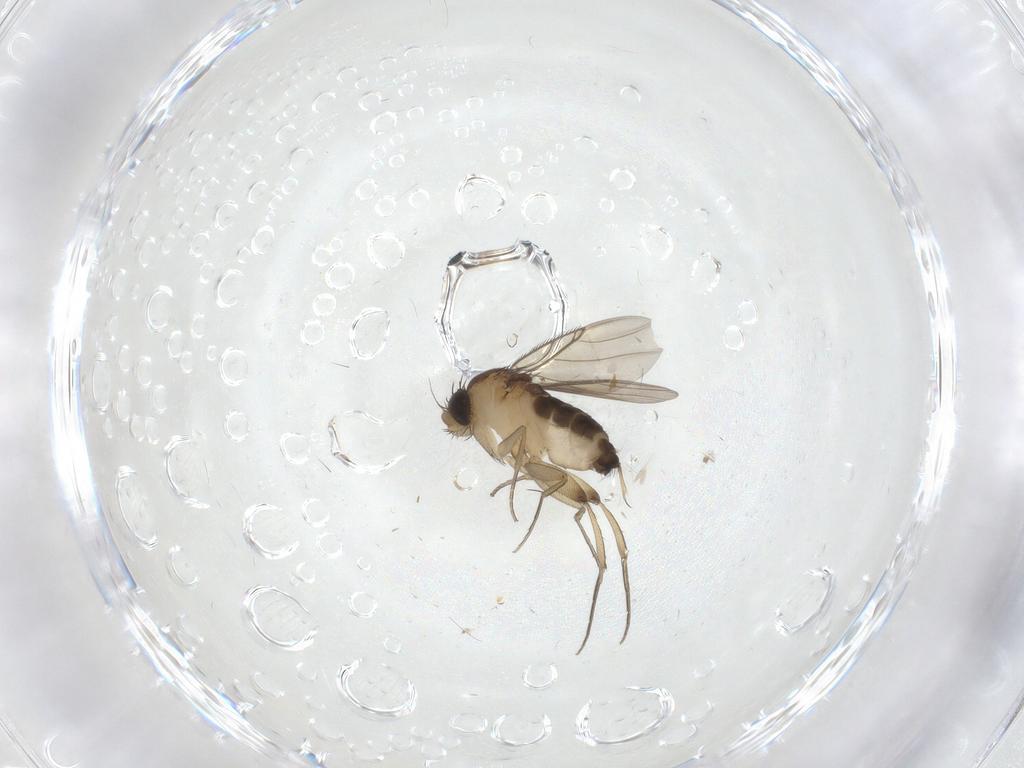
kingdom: Animalia
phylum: Arthropoda
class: Insecta
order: Diptera
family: Phoridae
